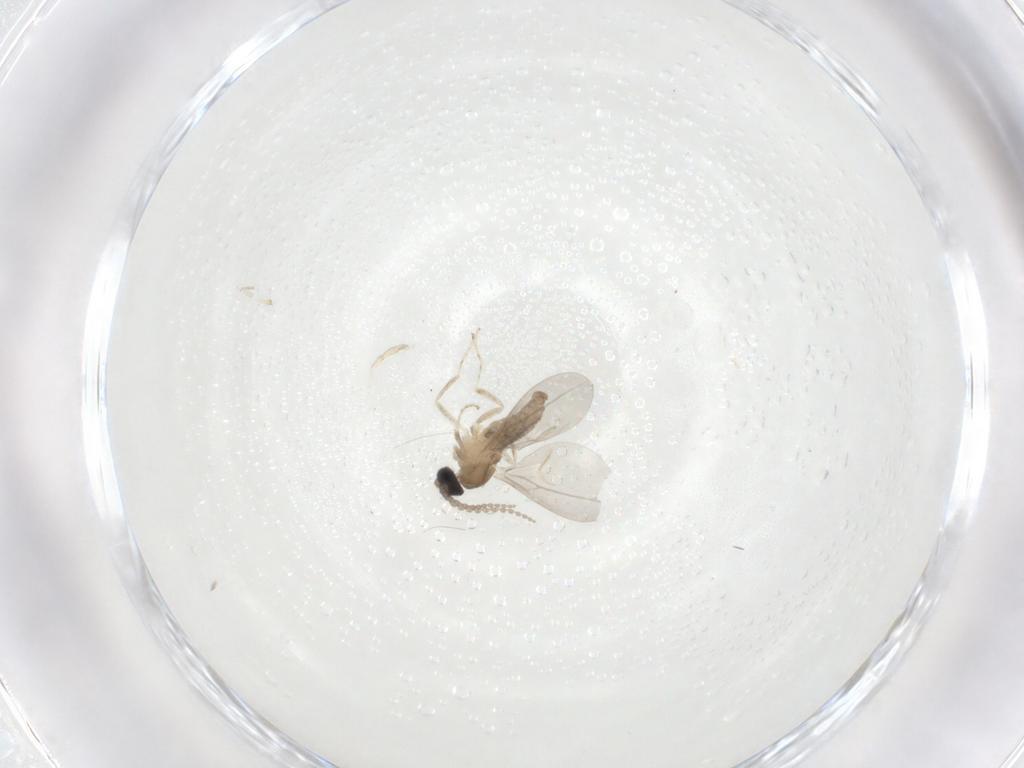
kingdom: Animalia
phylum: Arthropoda
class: Insecta
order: Diptera
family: Cecidomyiidae
